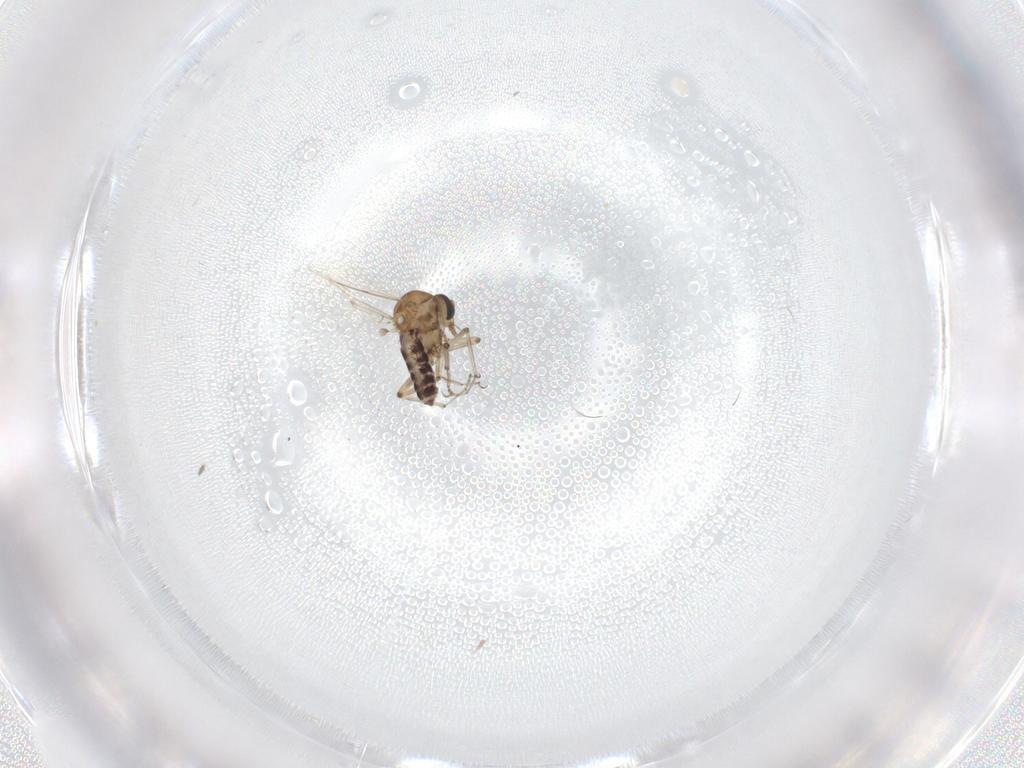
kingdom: Animalia
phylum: Arthropoda
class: Insecta
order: Diptera
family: Ceratopogonidae
